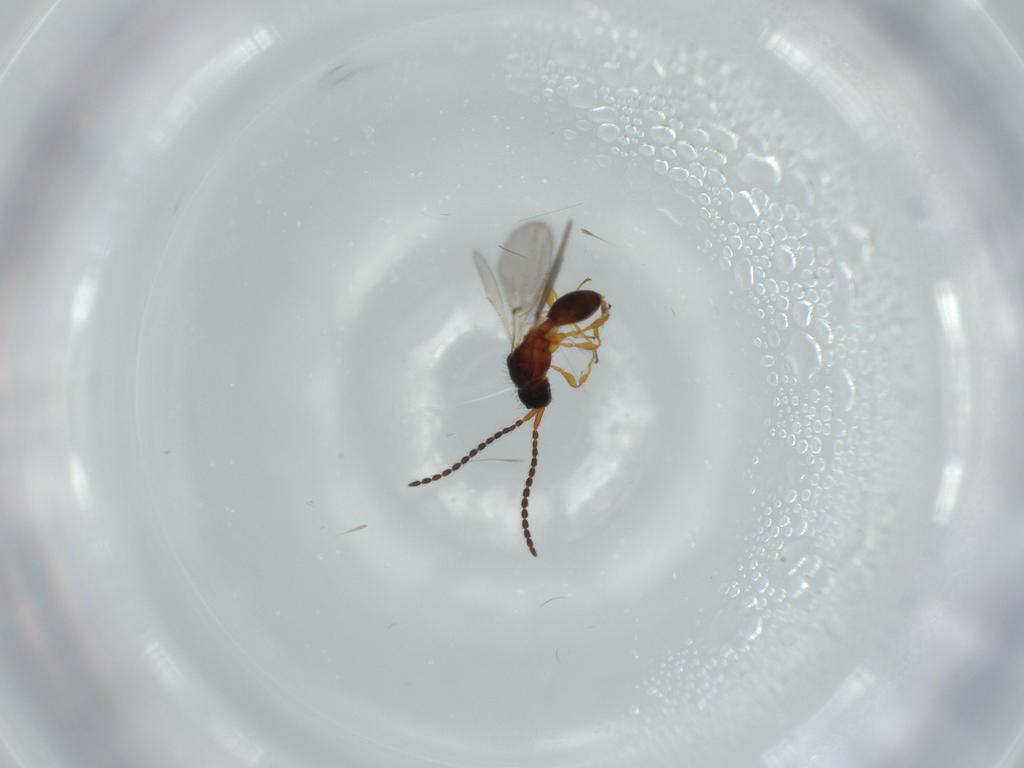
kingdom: Animalia
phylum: Arthropoda
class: Insecta
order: Hymenoptera
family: Diapriidae
